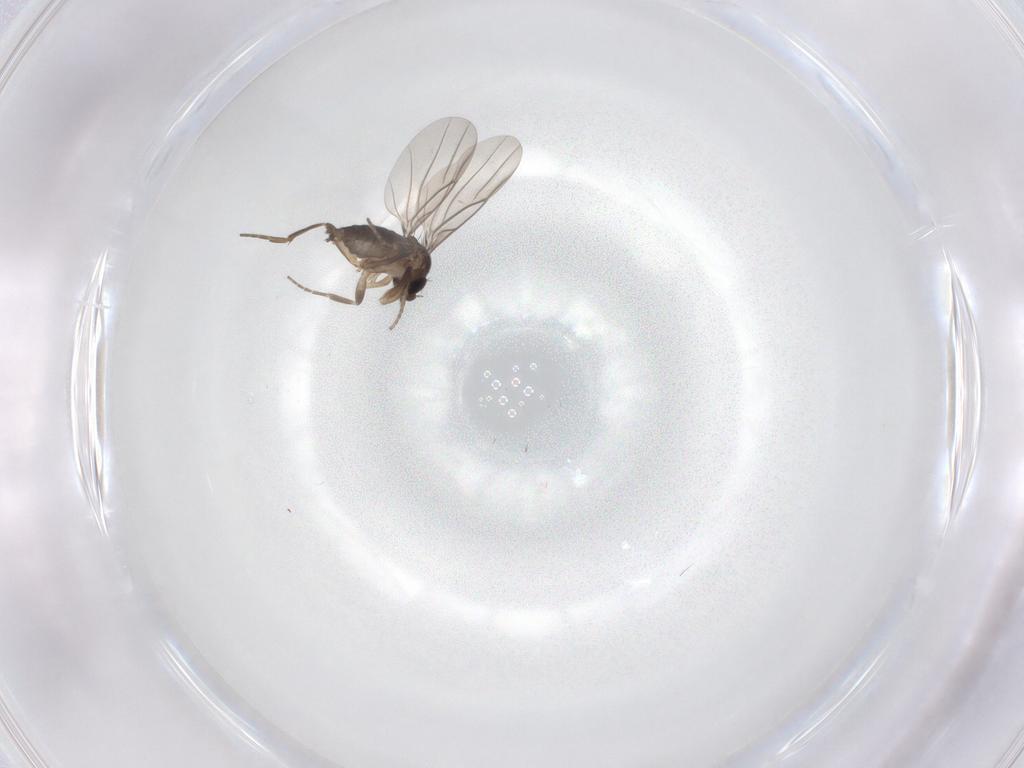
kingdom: Animalia
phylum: Arthropoda
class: Insecta
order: Diptera
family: Phoridae
